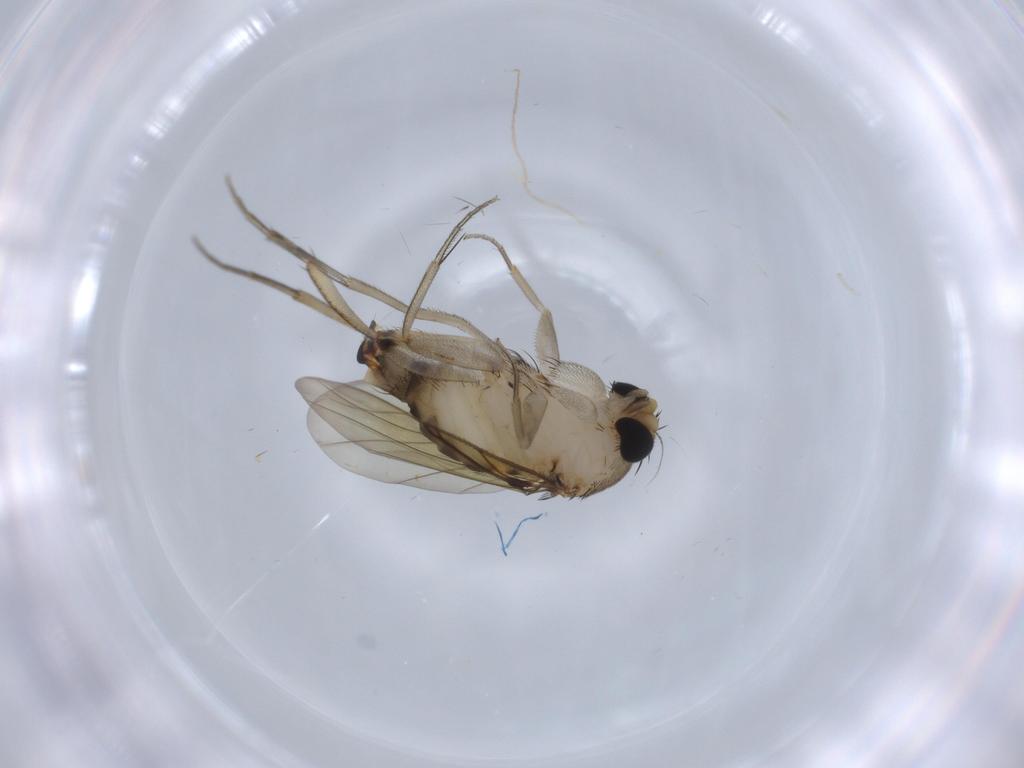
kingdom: Animalia
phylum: Arthropoda
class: Insecta
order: Diptera
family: Phoridae
